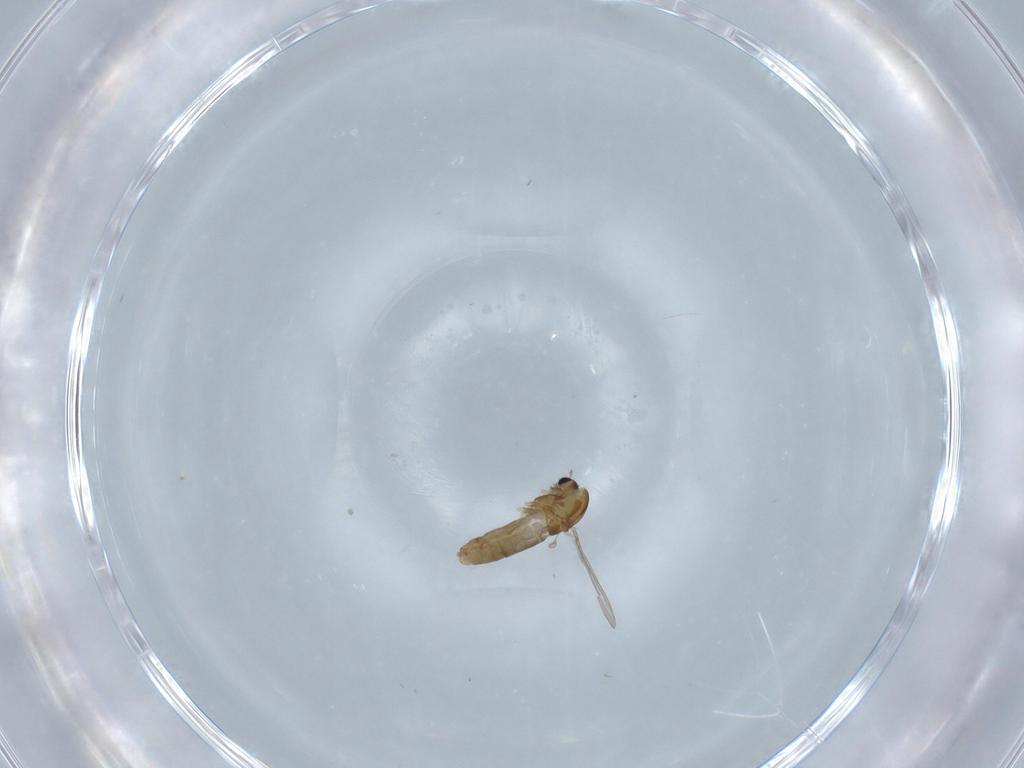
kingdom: Animalia
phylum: Arthropoda
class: Insecta
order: Diptera
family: Chironomidae
